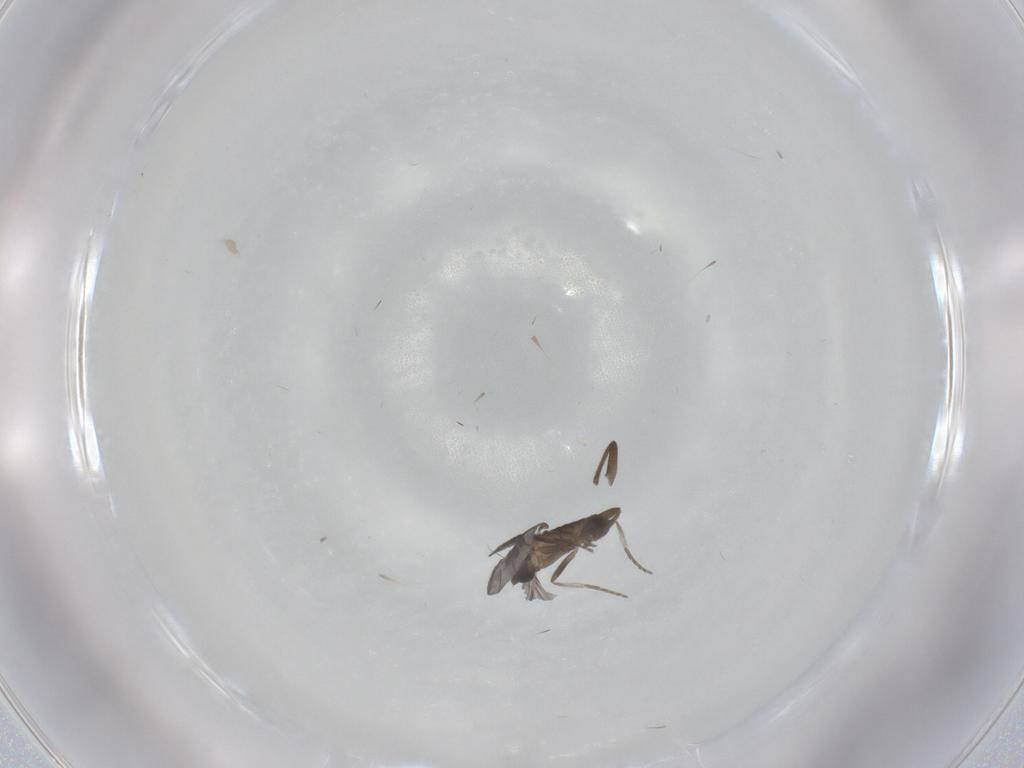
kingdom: Animalia
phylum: Arthropoda
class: Insecta
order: Diptera
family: Phoridae
